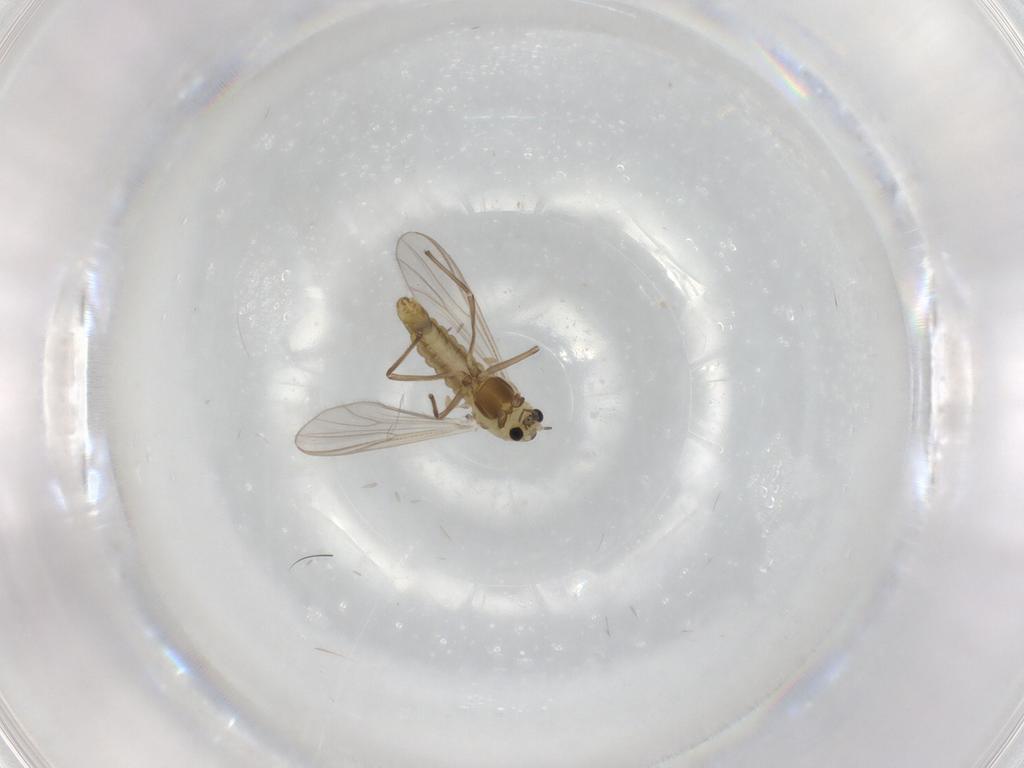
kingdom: Animalia
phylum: Arthropoda
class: Insecta
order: Diptera
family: Chironomidae
